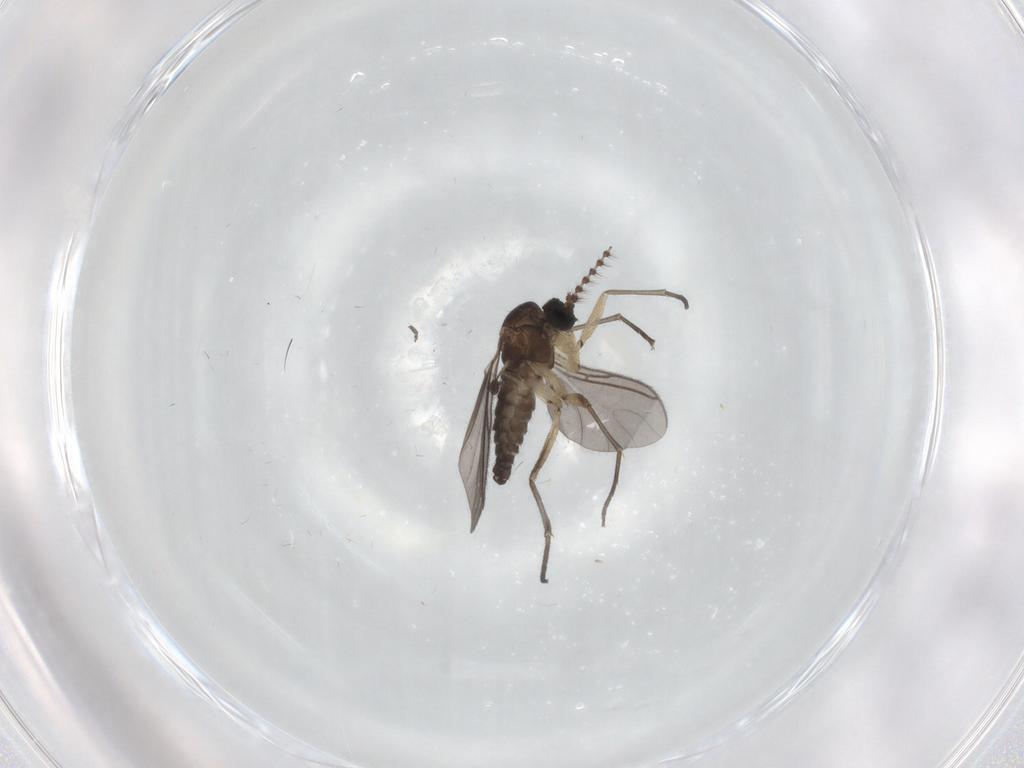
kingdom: Animalia
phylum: Arthropoda
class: Insecta
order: Diptera
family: Sciaridae
